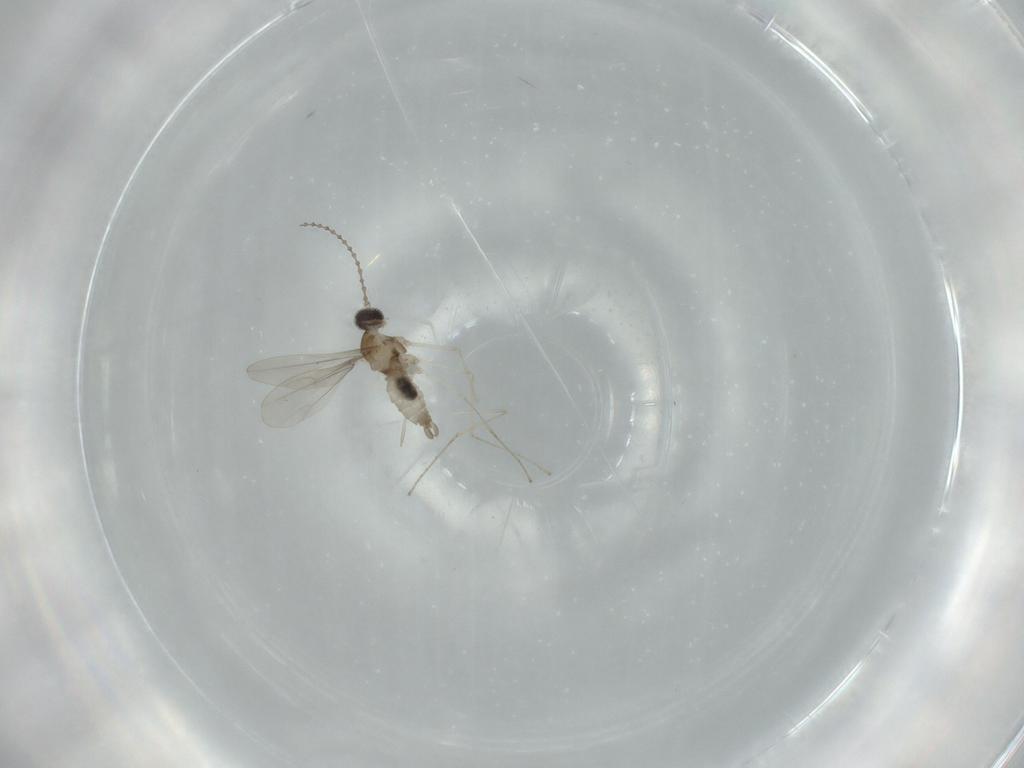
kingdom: Animalia
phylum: Arthropoda
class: Insecta
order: Diptera
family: Cecidomyiidae
